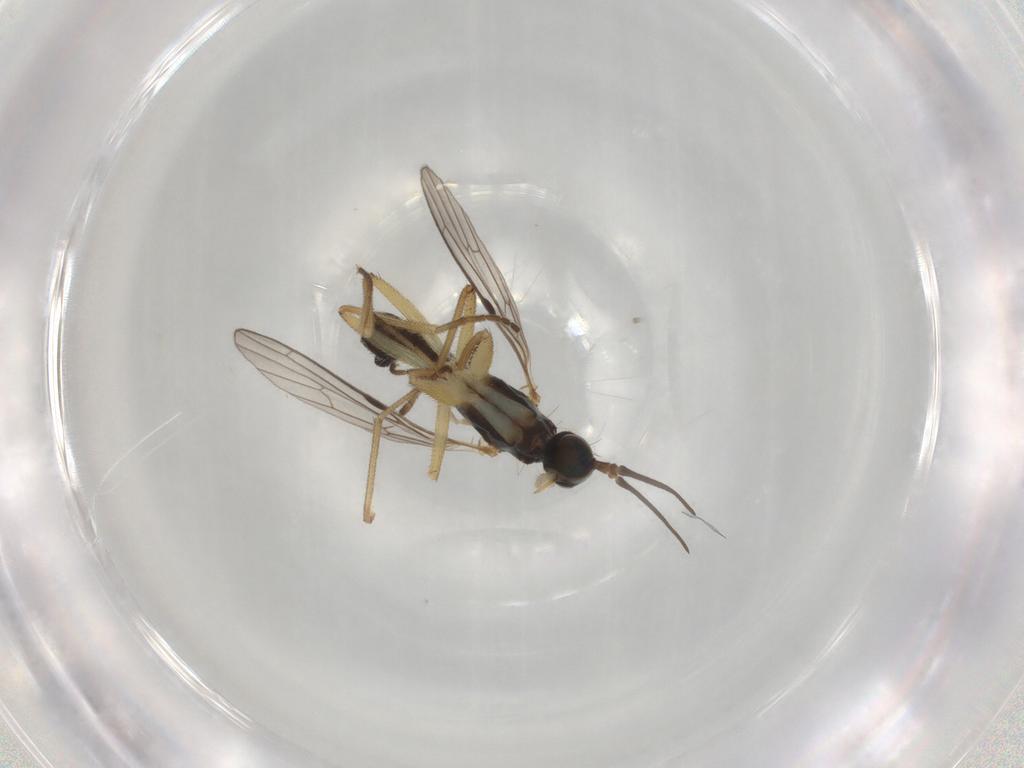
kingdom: Animalia
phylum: Arthropoda
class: Insecta
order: Diptera
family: Empididae
